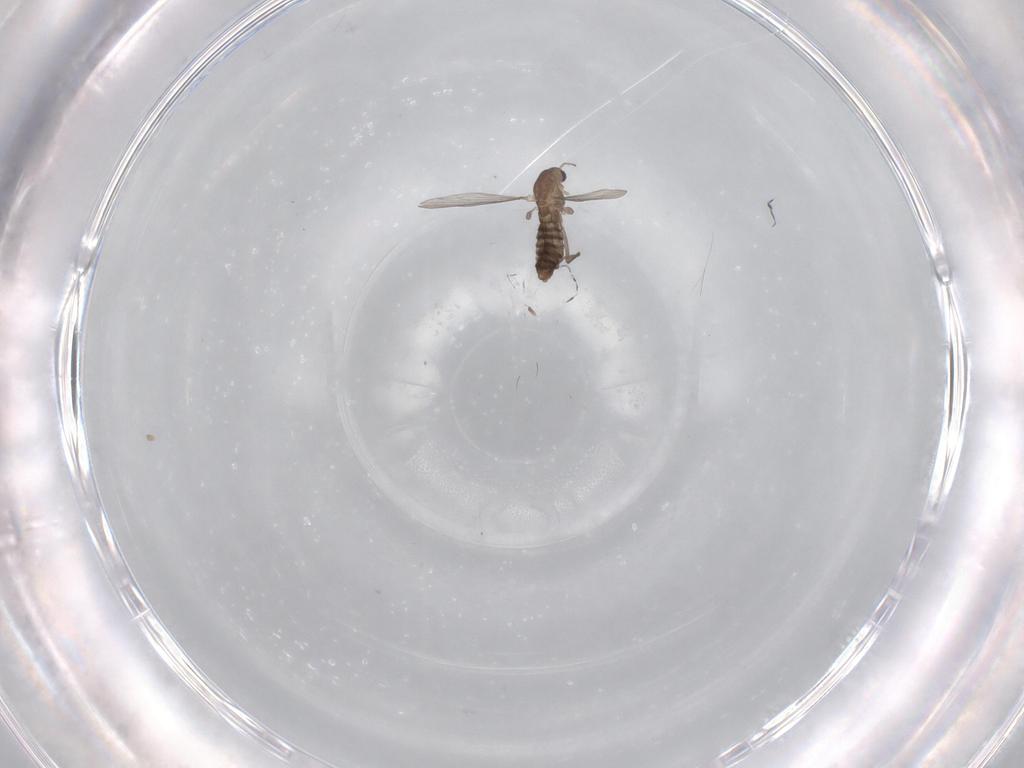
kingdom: Animalia
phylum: Arthropoda
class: Insecta
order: Diptera
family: Chironomidae
